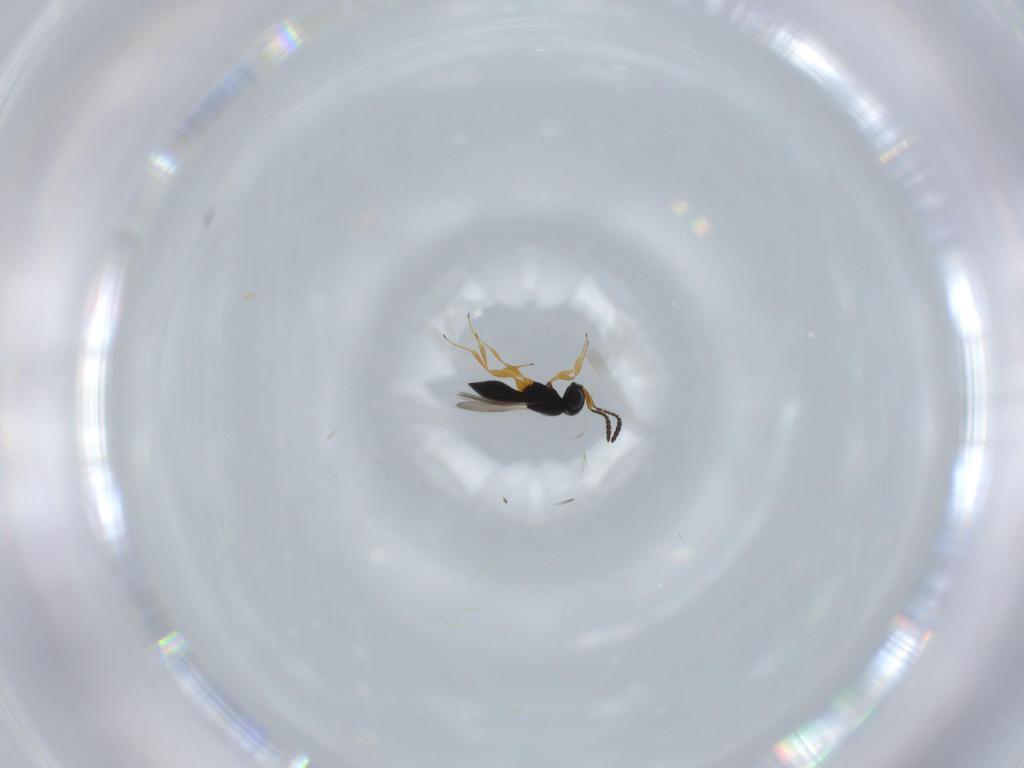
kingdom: Animalia
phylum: Arthropoda
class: Insecta
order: Hymenoptera
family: Scelionidae
